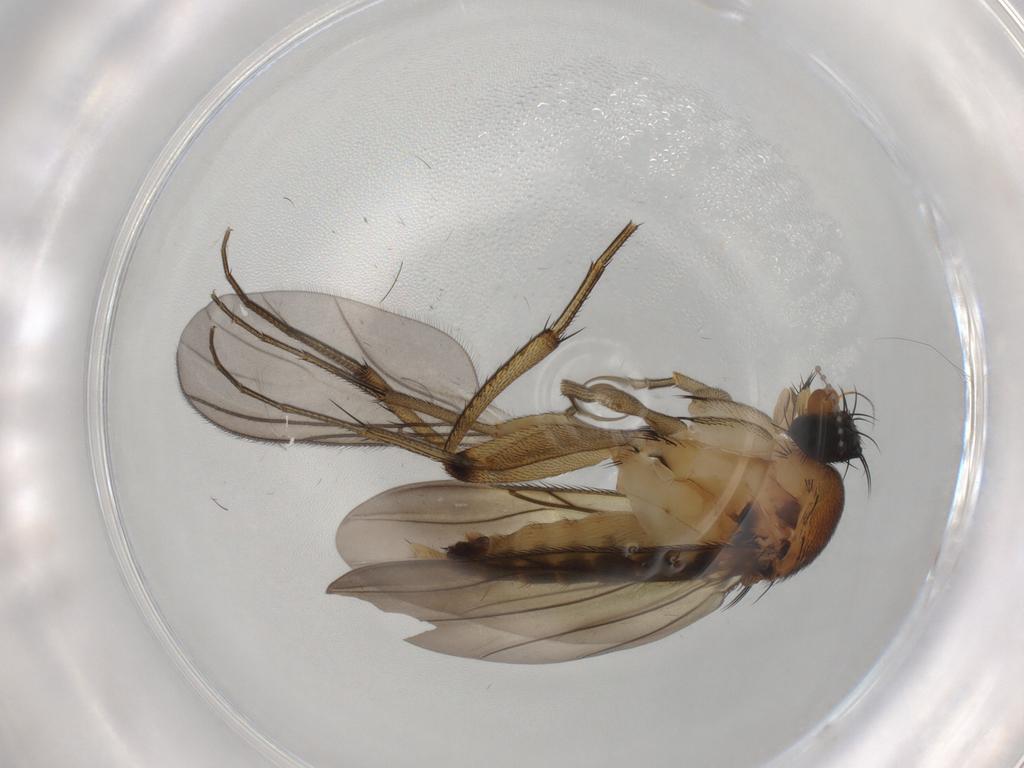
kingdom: Animalia
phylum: Arthropoda
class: Insecta
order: Diptera
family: Phoridae
